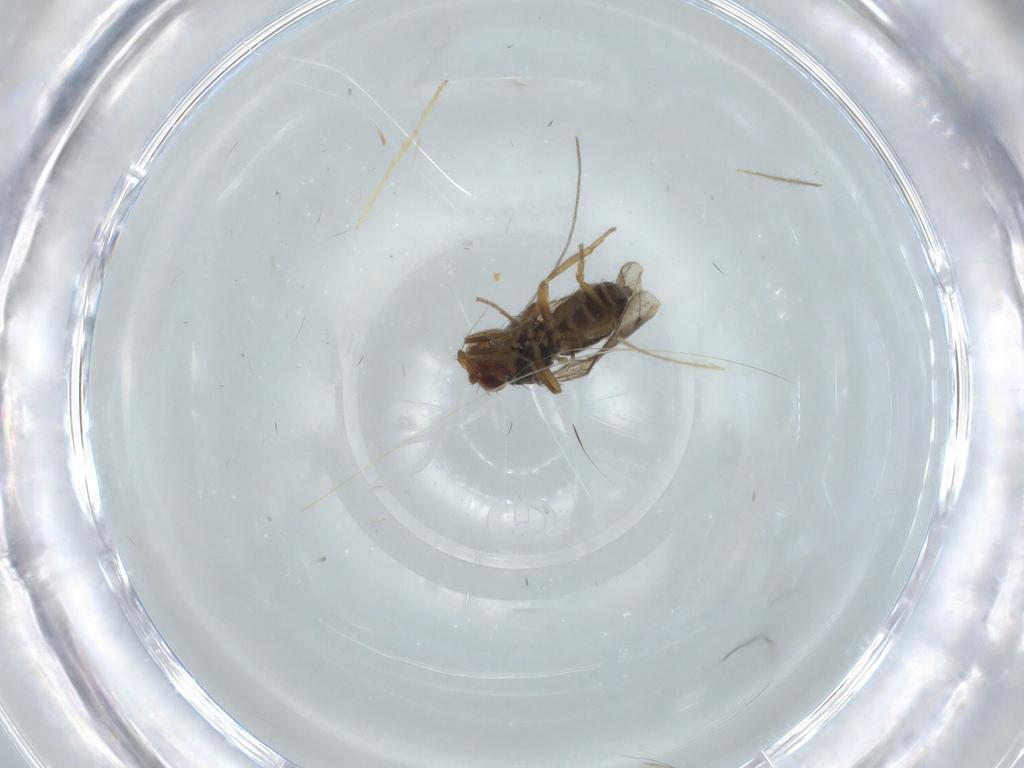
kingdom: Animalia
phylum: Arthropoda
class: Insecta
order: Diptera
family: Sphaeroceridae
